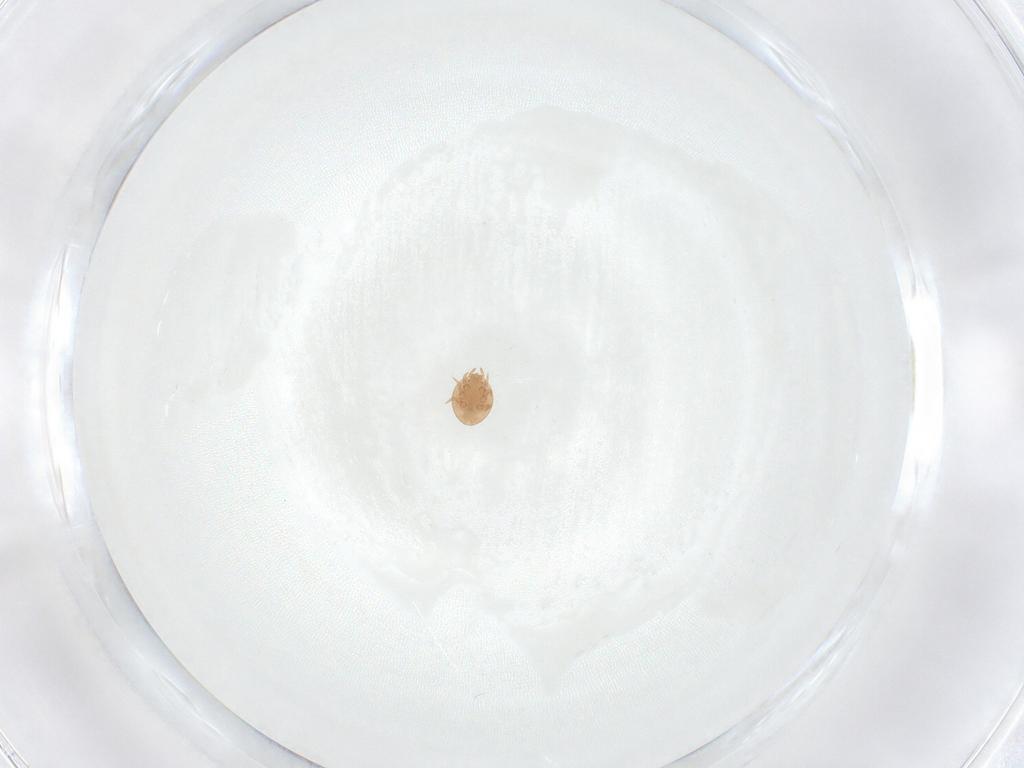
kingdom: Animalia
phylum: Arthropoda
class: Arachnida
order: Mesostigmata
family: Trematuridae
